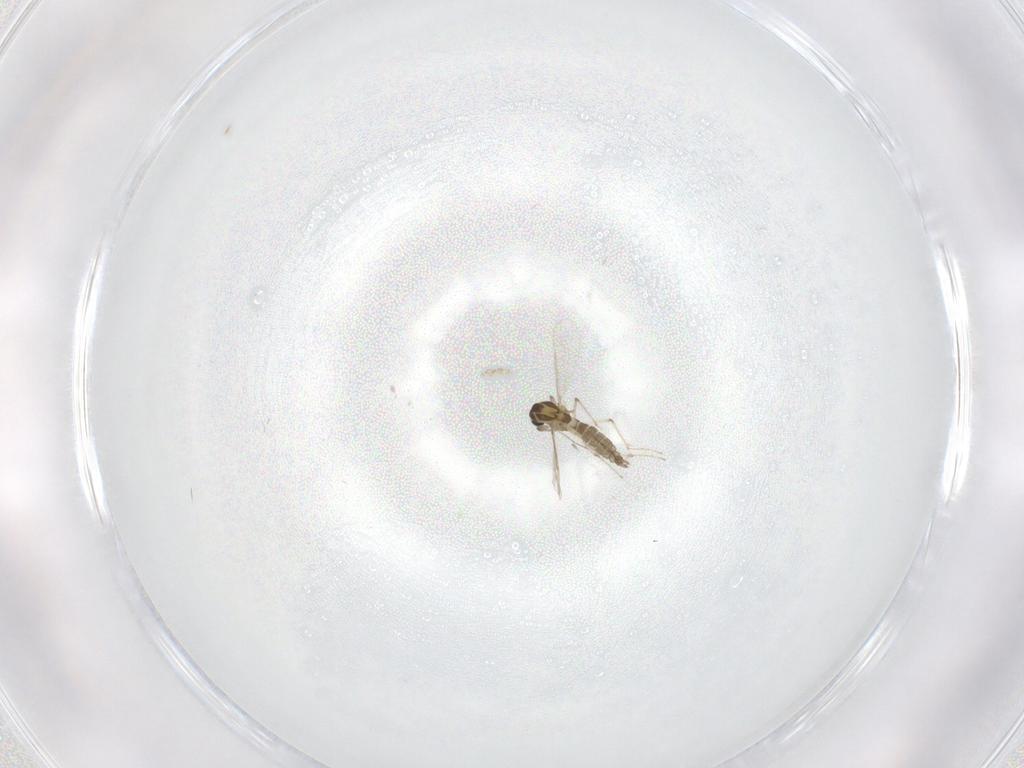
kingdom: Animalia
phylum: Arthropoda
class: Insecta
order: Diptera
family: Chironomidae
